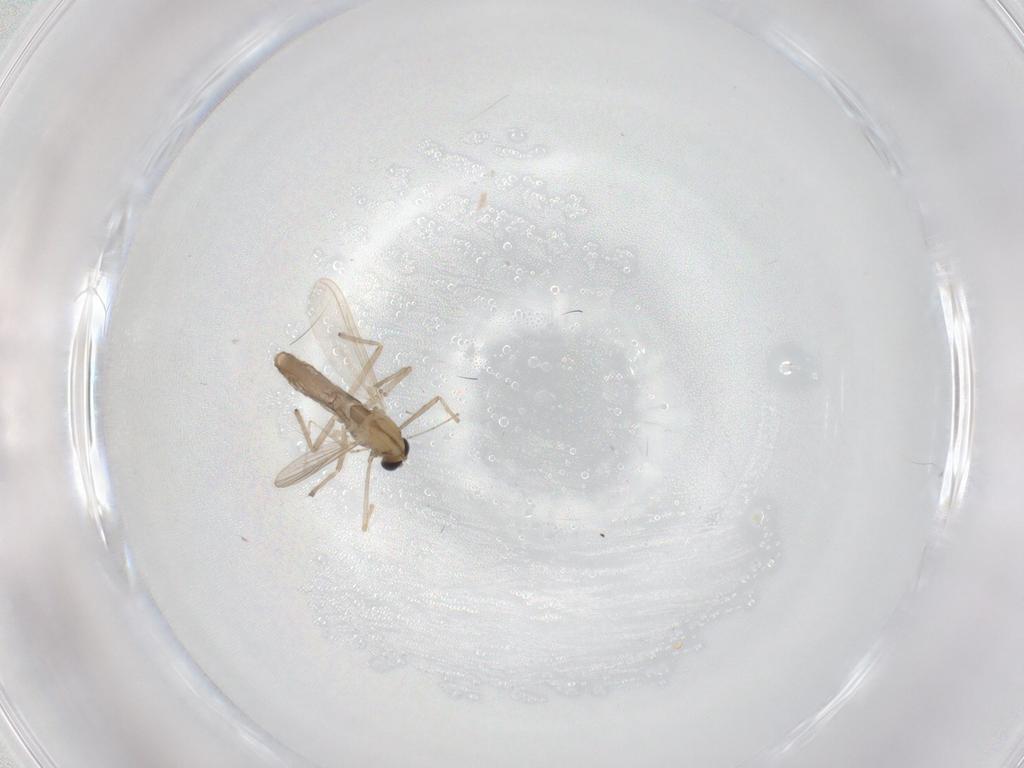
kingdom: Animalia
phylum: Arthropoda
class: Insecta
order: Diptera
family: Chironomidae
